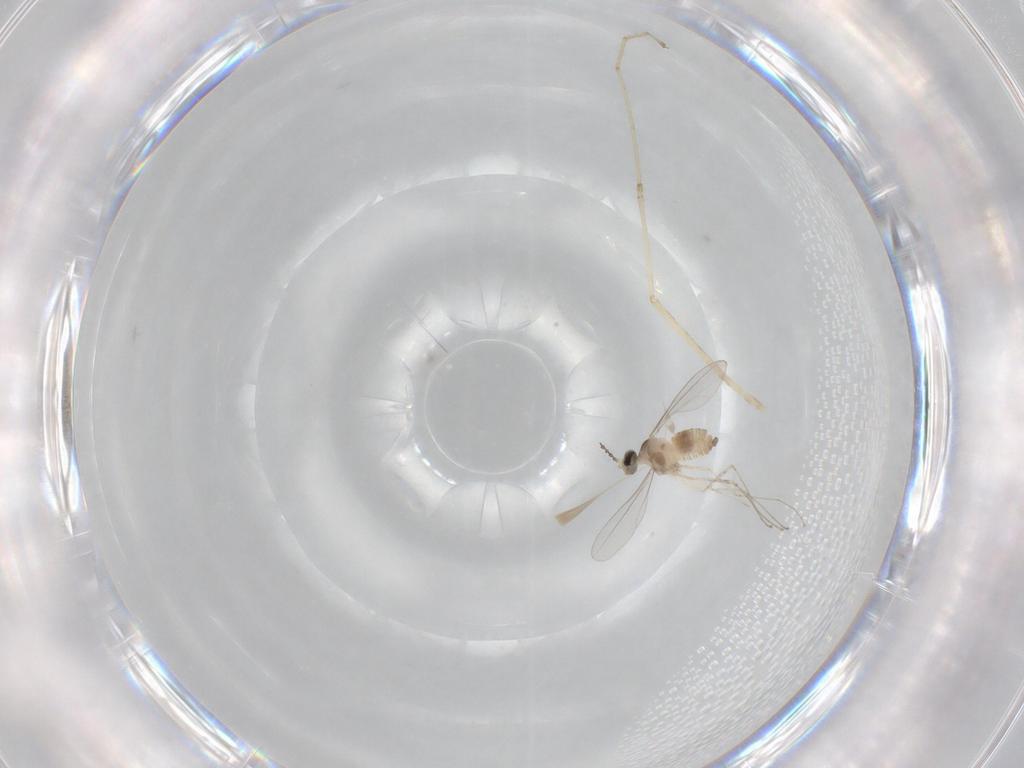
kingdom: Animalia
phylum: Arthropoda
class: Insecta
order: Diptera
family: Cecidomyiidae
